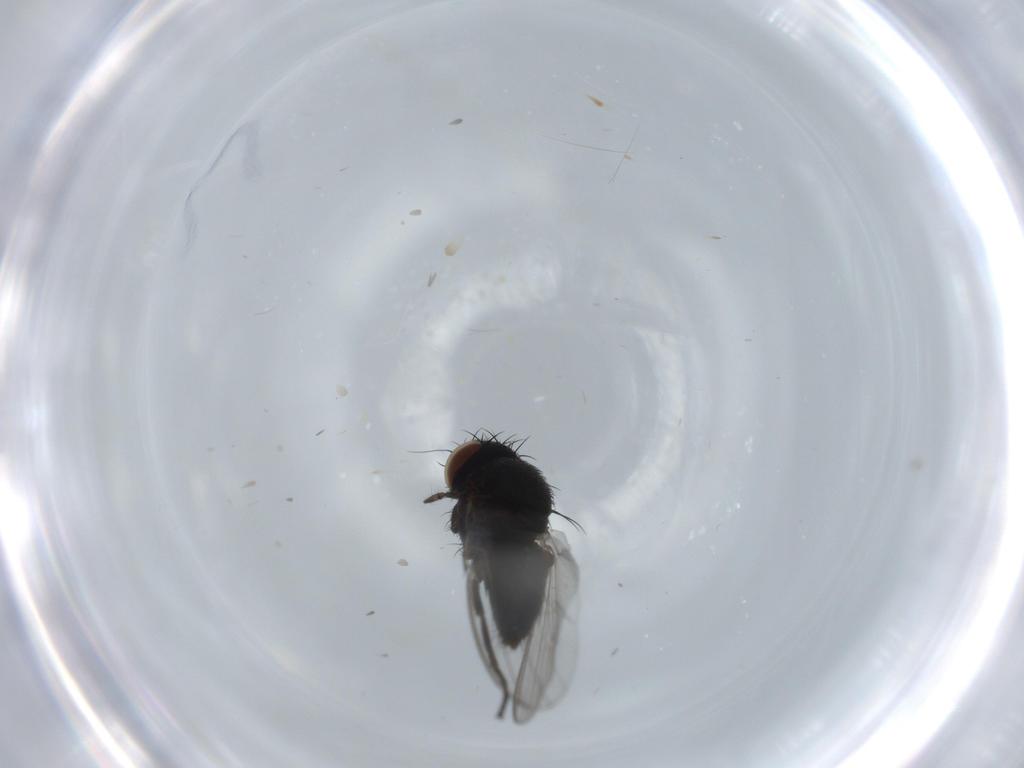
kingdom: Animalia
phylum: Arthropoda
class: Insecta
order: Diptera
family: Milichiidae
